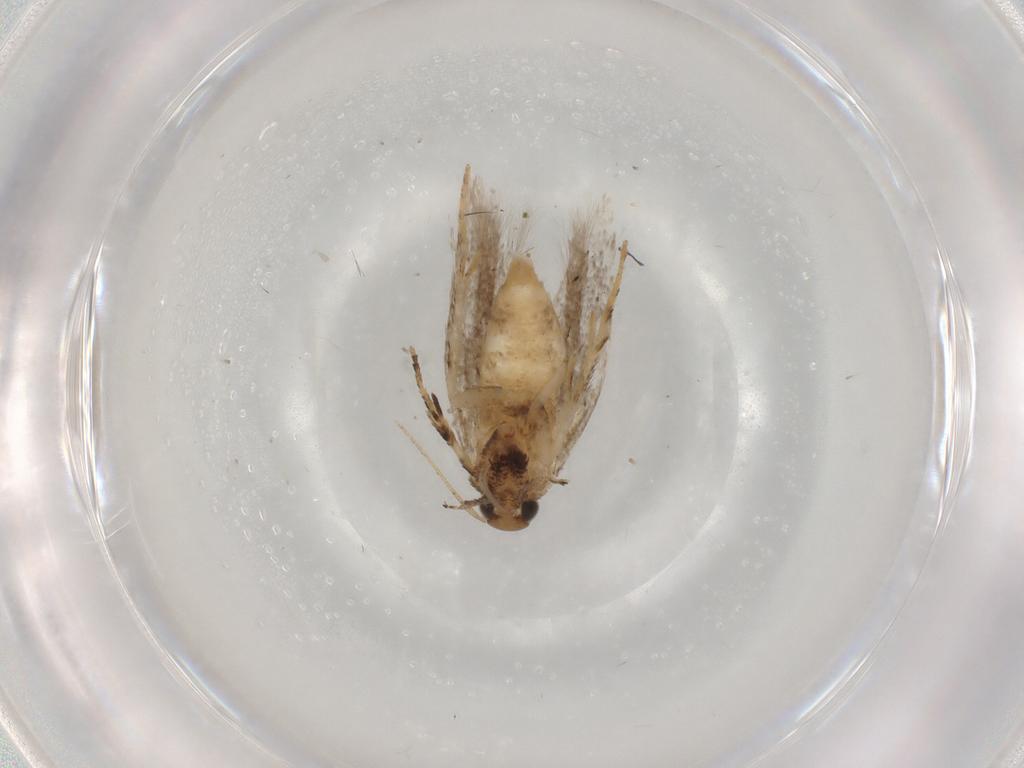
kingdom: Animalia
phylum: Arthropoda
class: Insecta
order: Lepidoptera
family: Gelechiidae
